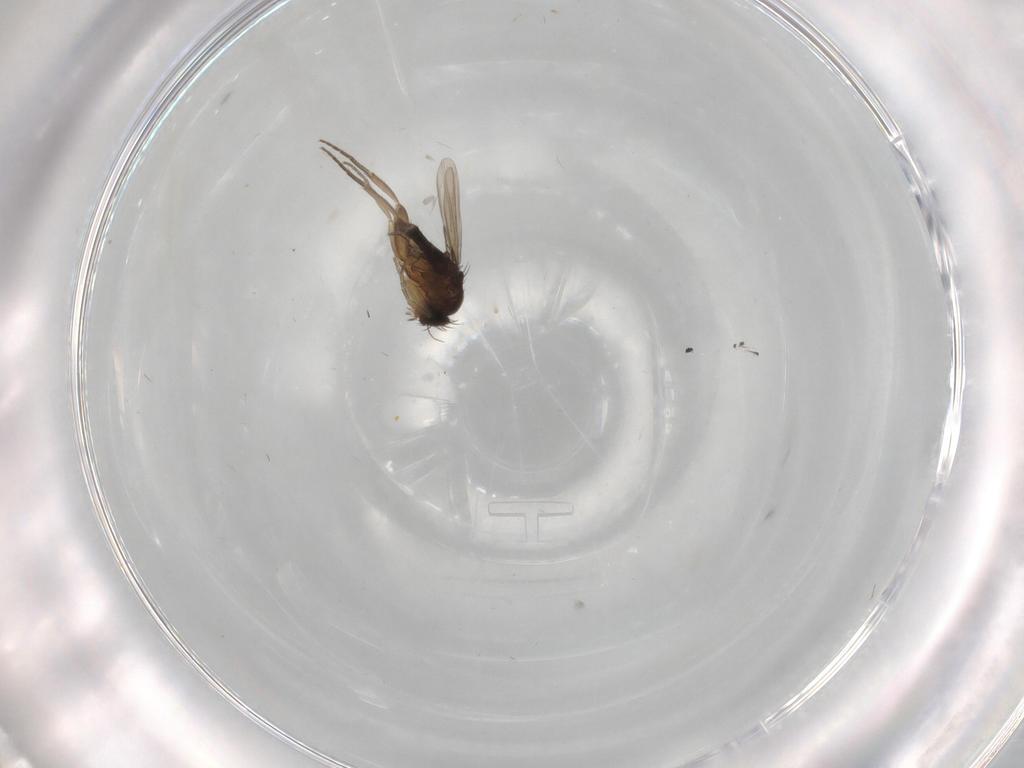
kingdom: Animalia
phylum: Arthropoda
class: Insecta
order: Diptera
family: Phoridae
